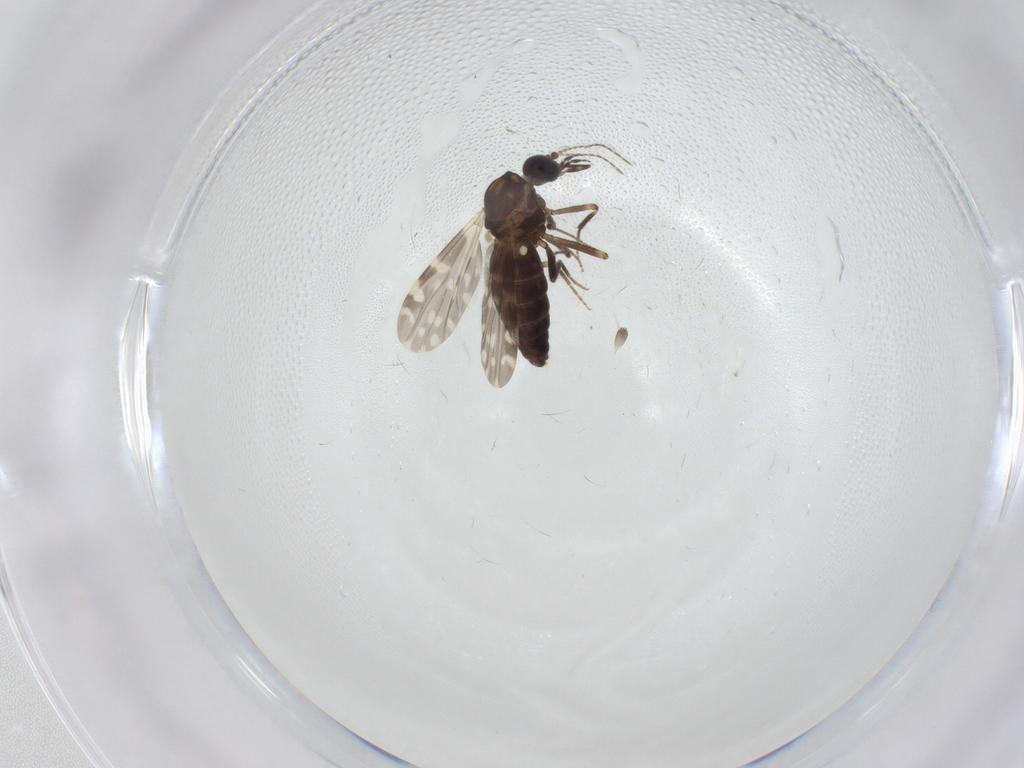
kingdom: Animalia
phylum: Arthropoda
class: Insecta
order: Diptera
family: Ceratopogonidae
